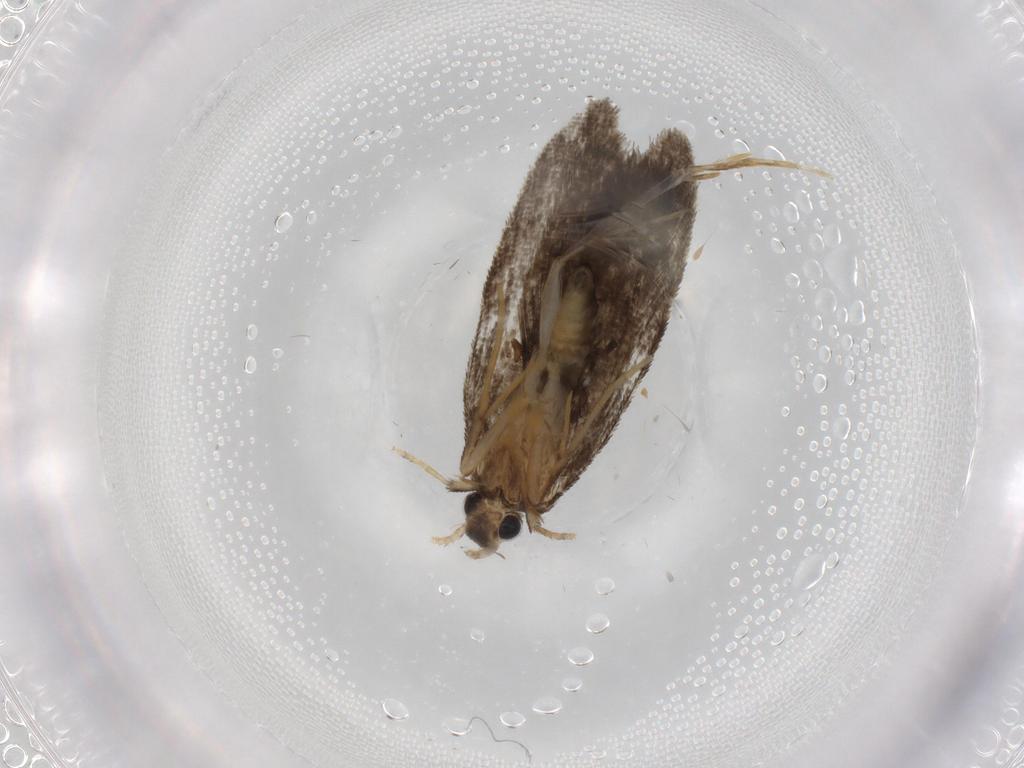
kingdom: Animalia
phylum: Arthropoda
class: Insecta
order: Lepidoptera
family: Psychidae
